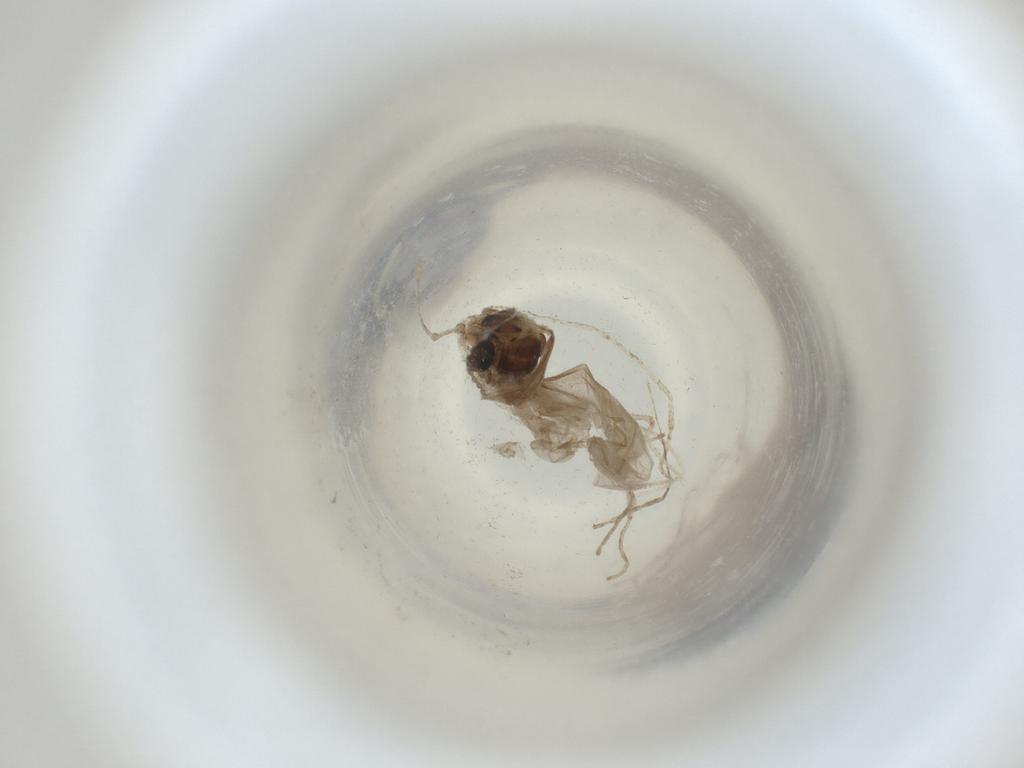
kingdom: Animalia
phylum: Arthropoda
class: Insecta
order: Diptera
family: Cecidomyiidae
